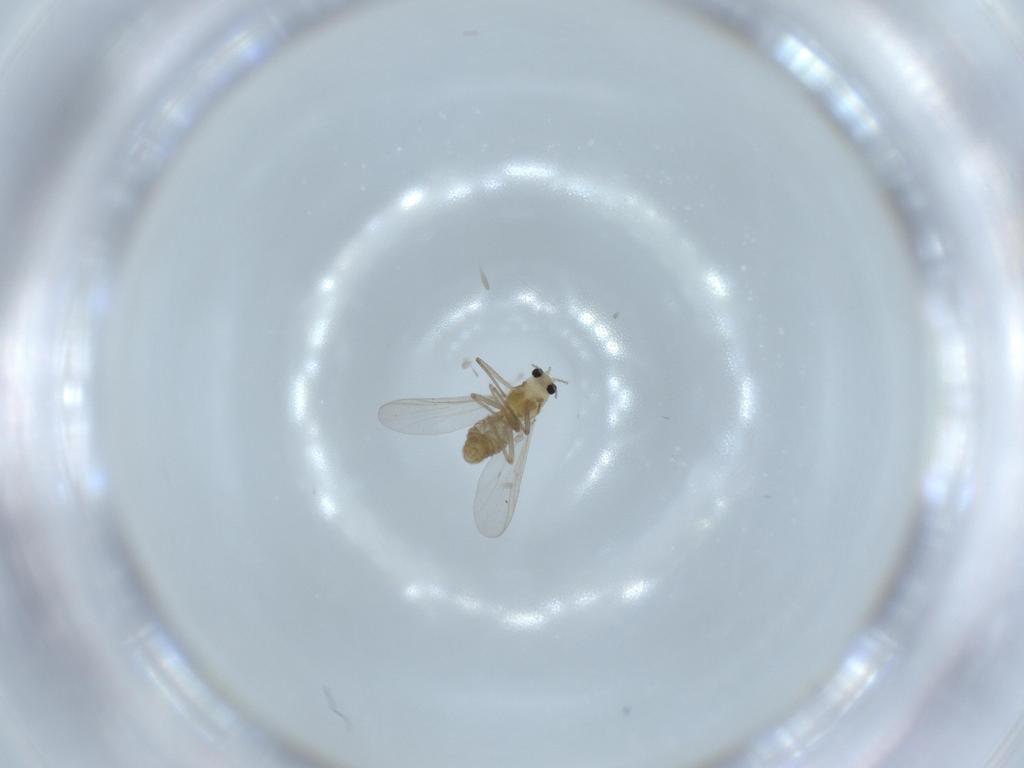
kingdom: Animalia
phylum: Arthropoda
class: Insecta
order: Diptera
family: Chironomidae
